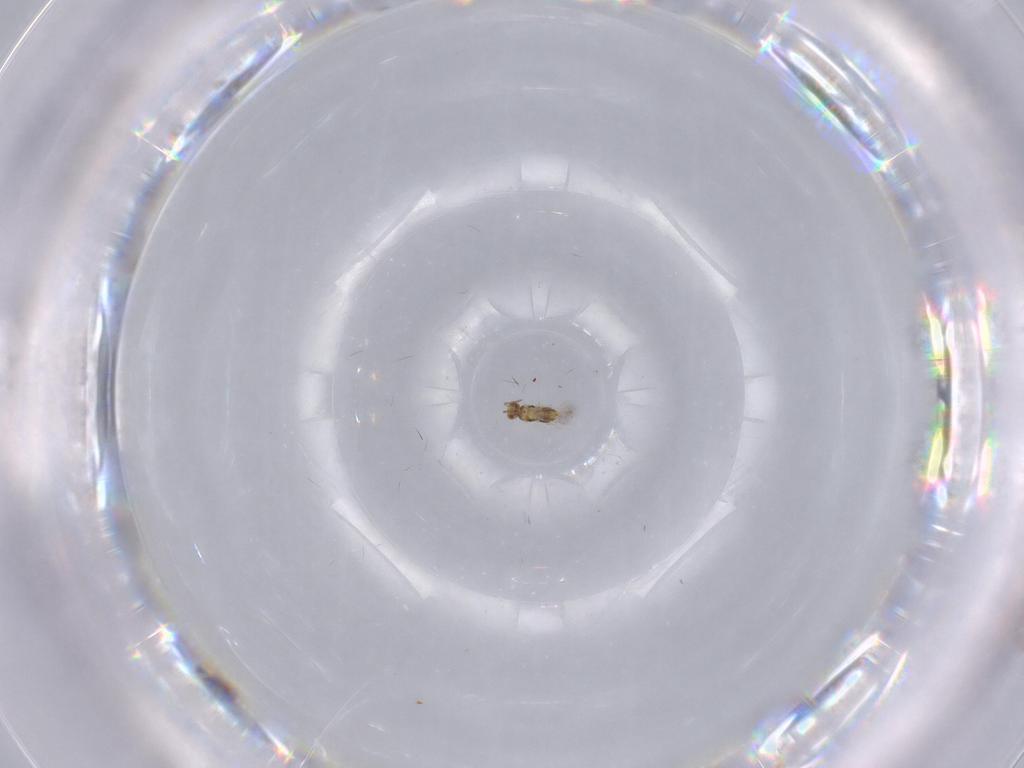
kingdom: Animalia
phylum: Arthropoda
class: Insecta
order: Hymenoptera
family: Aphelinidae
